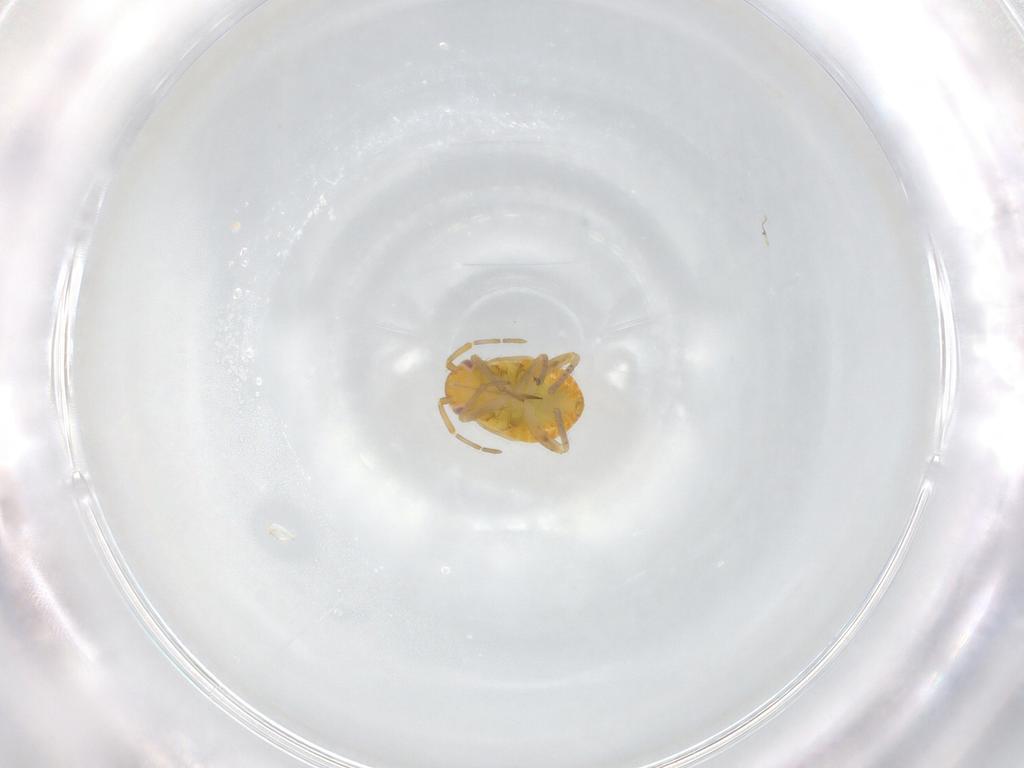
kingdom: Animalia
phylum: Arthropoda
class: Insecta
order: Hemiptera
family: Miridae
